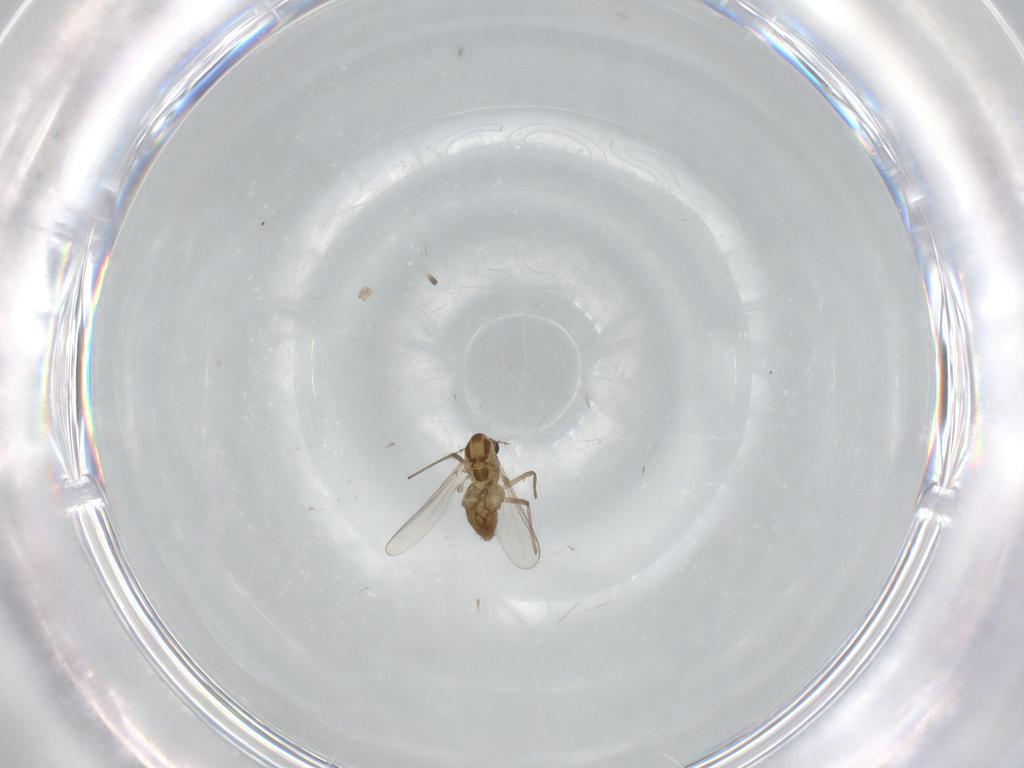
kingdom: Animalia
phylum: Arthropoda
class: Insecta
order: Diptera
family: Chironomidae
